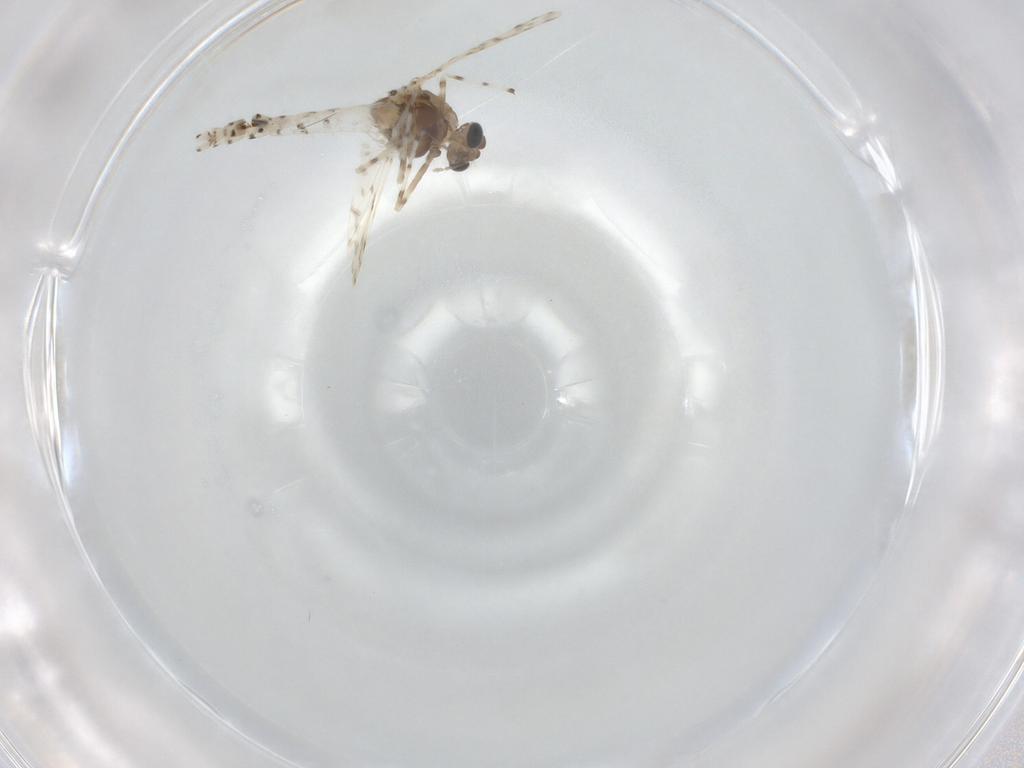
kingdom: Animalia
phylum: Arthropoda
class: Insecta
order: Diptera
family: Chironomidae
